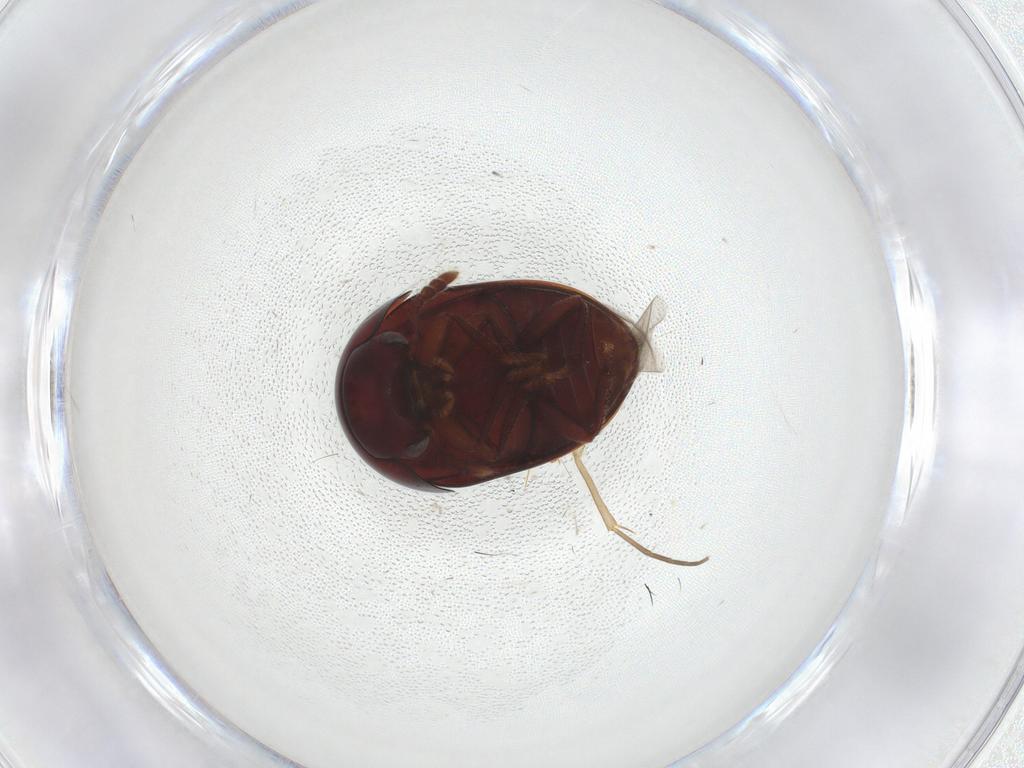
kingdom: Animalia
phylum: Arthropoda
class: Insecta
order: Coleoptera
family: Leiodidae
